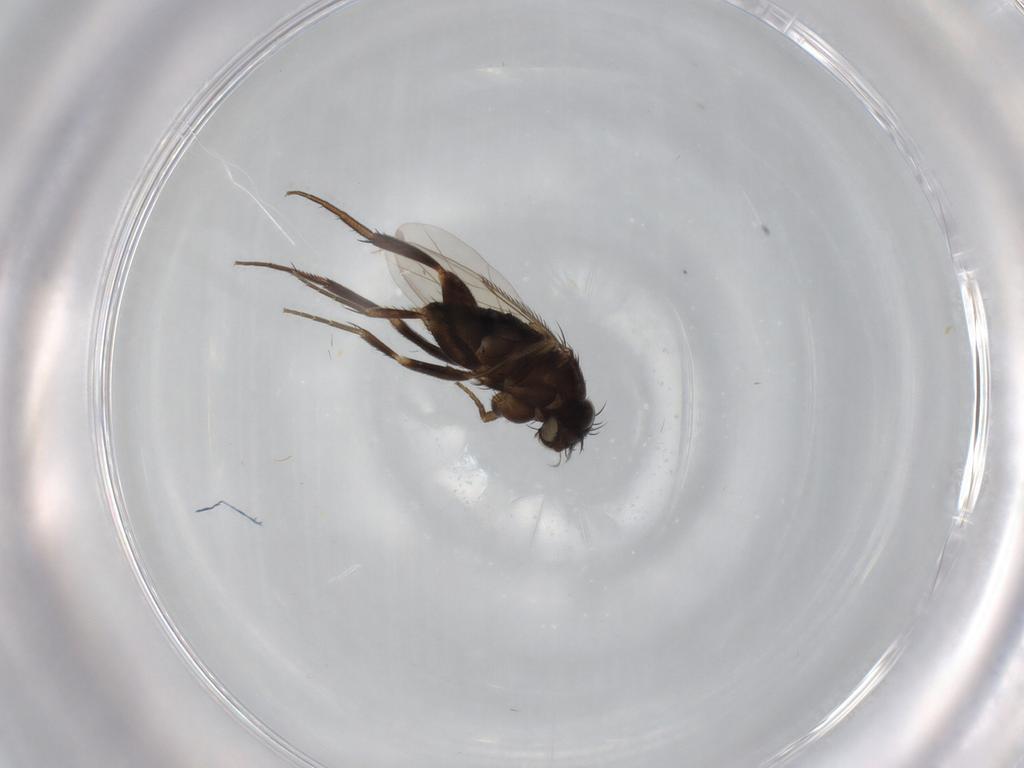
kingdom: Animalia
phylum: Arthropoda
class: Insecta
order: Diptera
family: Phoridae
